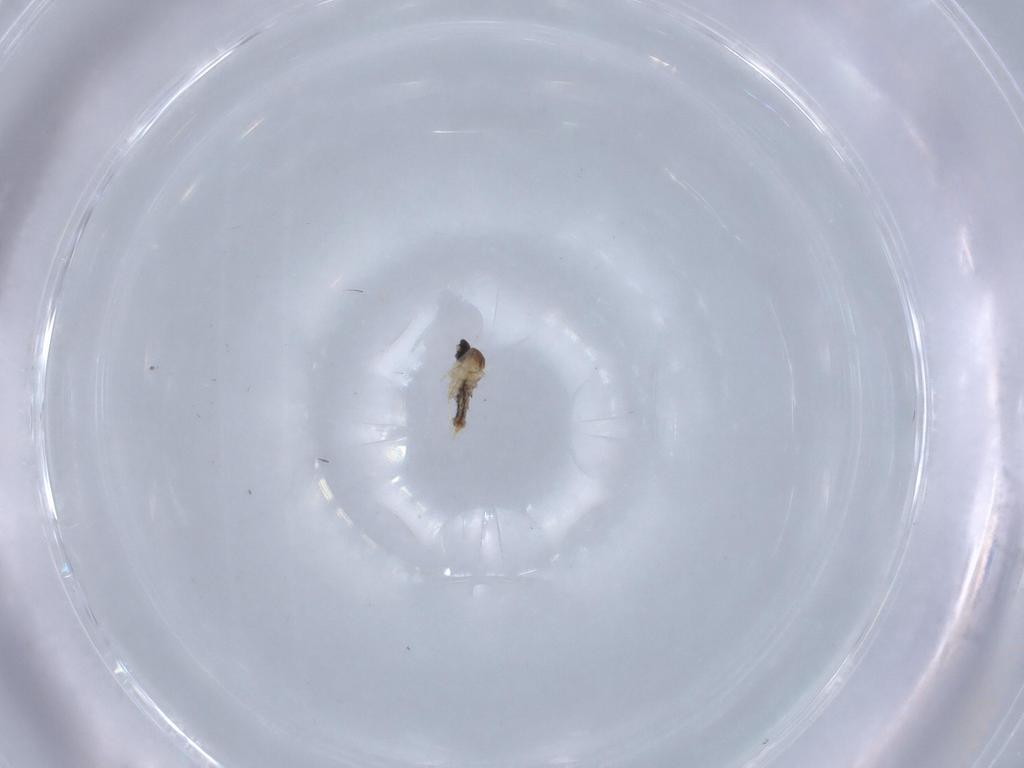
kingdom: Animalia
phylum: Arthropoda
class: Insecta
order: Diptera
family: Cecidomyiidae
